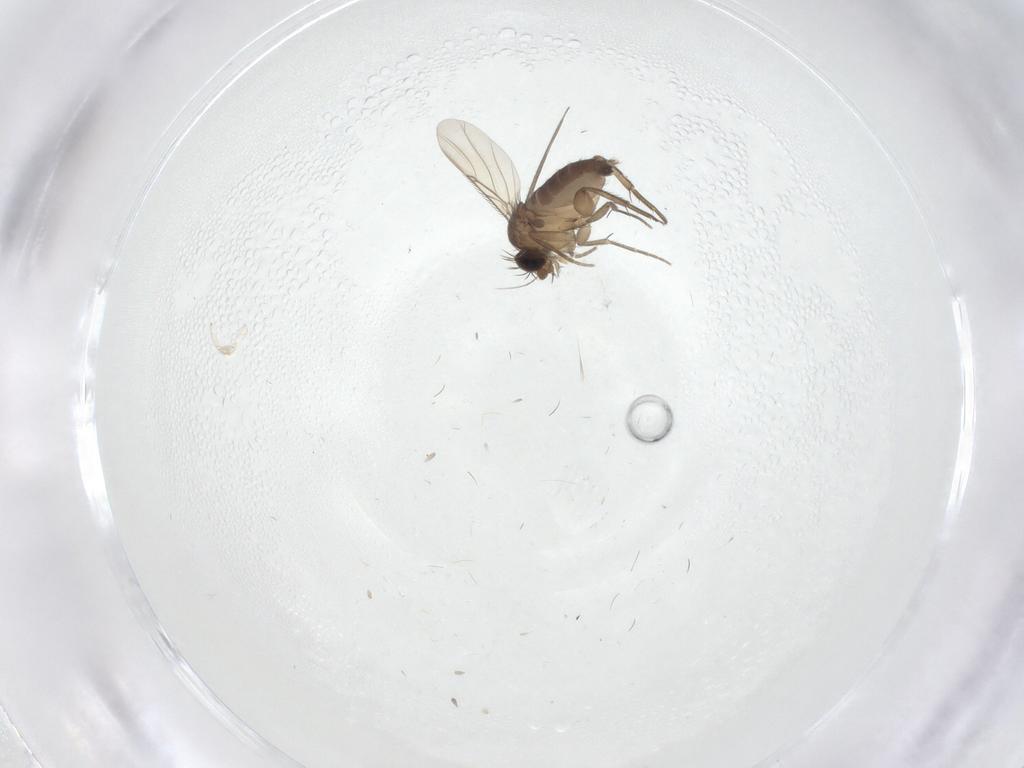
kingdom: Animalia
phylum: Arthropoda
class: Insecta
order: Diptera
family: Phoridae
